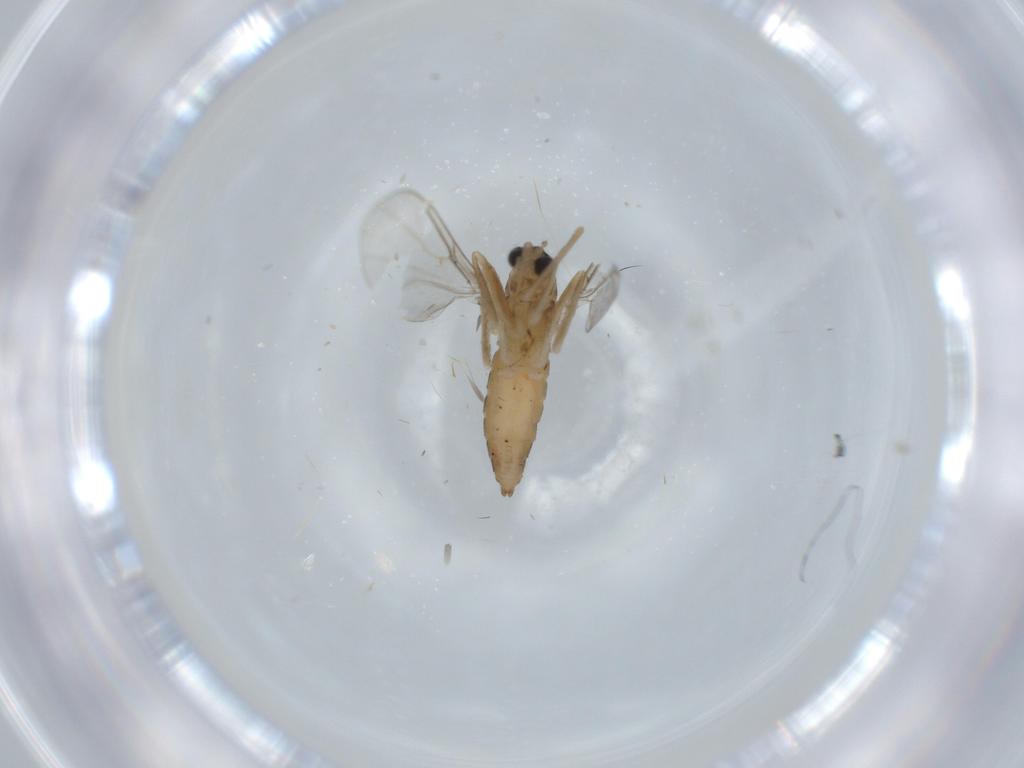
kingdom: Animalia
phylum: Arthropoda
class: Insecta
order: Diptera
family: Cecidomyiidae
